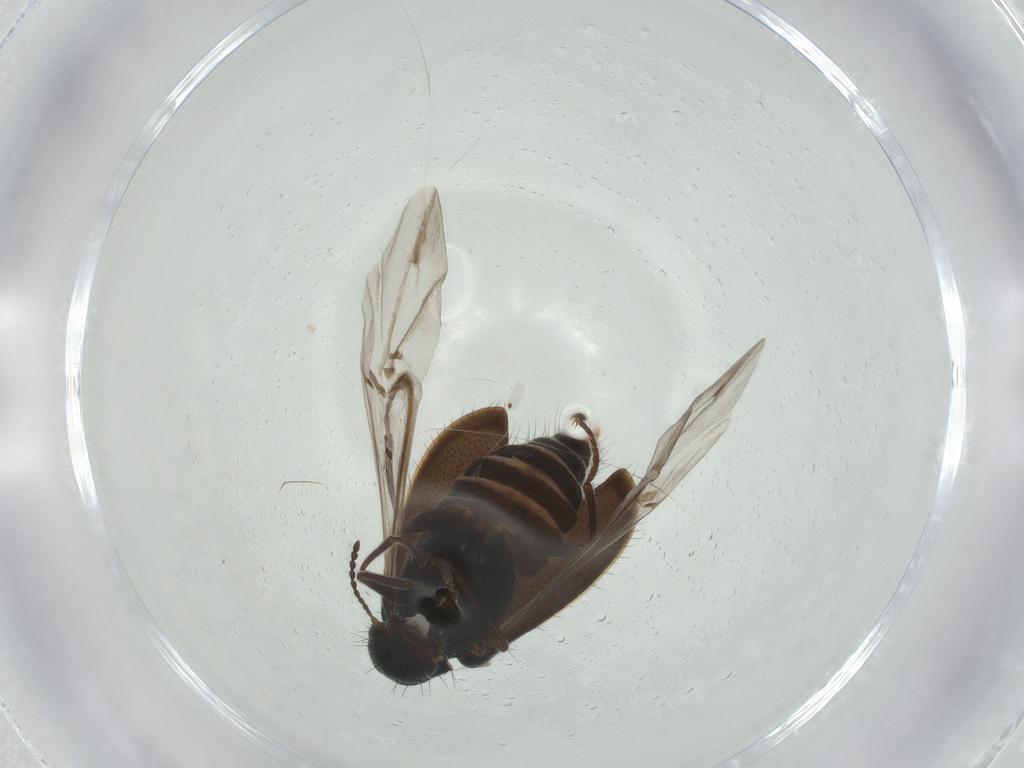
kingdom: Animalia
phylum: Arthropoda
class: Insecta
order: Coleoptera
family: Melyridae
